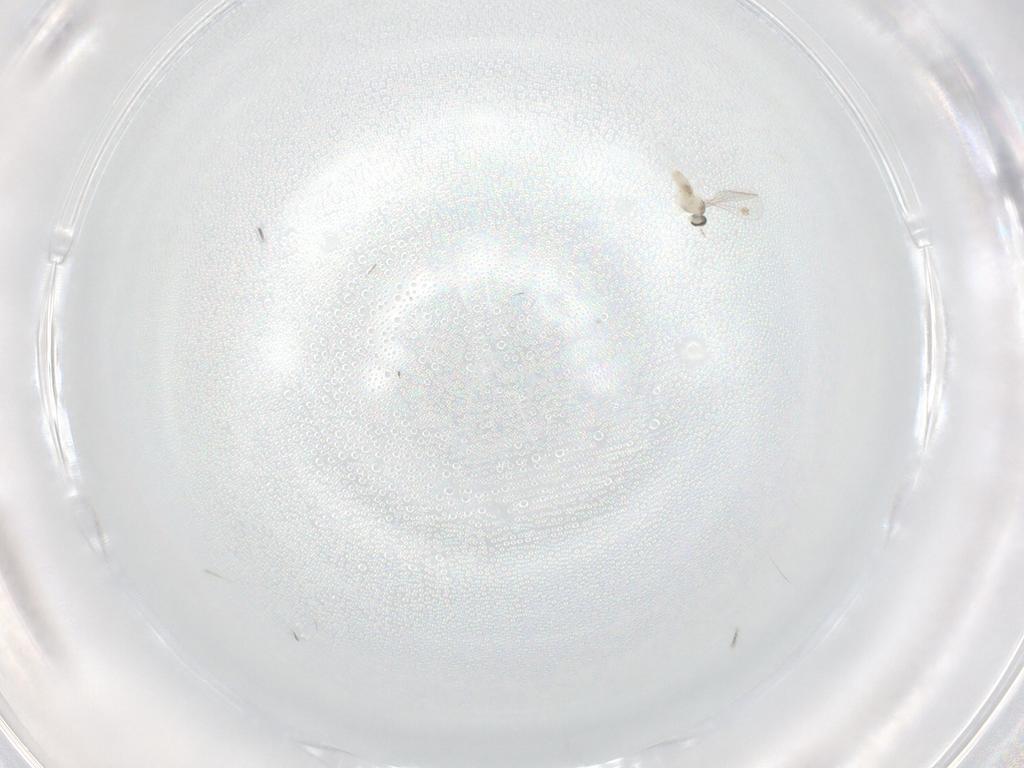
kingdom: Animalia
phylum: Arthropoda
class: Insecta
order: Diptera
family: Cecidomyiidae
